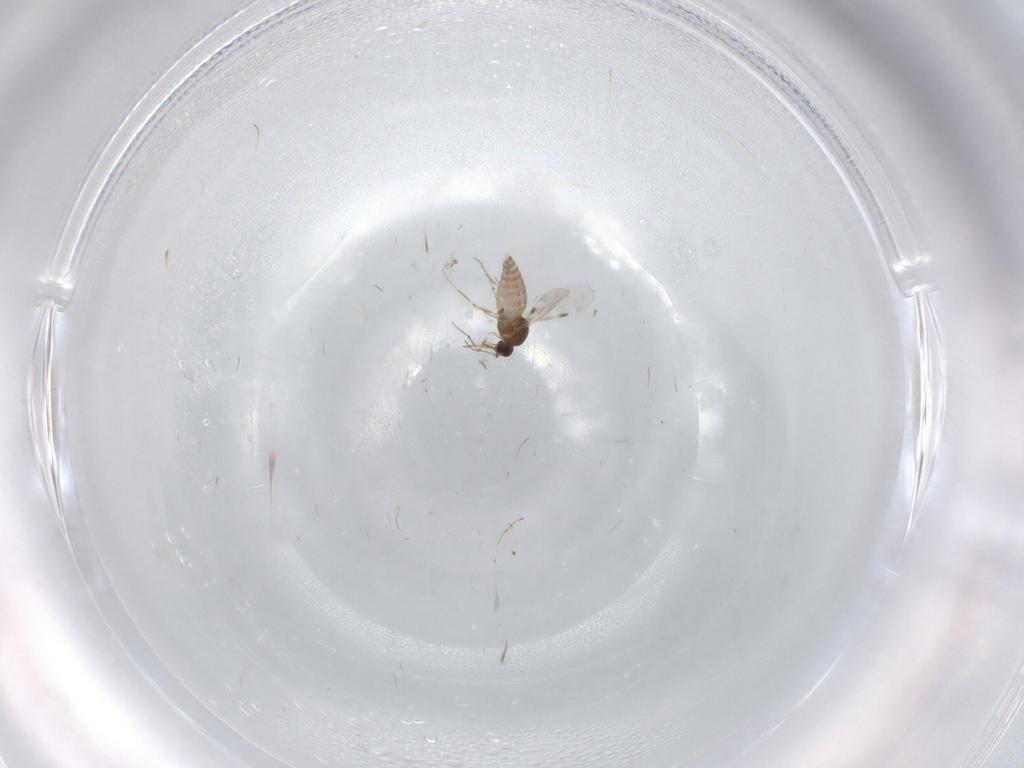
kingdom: Animalia
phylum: Arthropoda
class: Insecta
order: Diptera
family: Psychodidae
